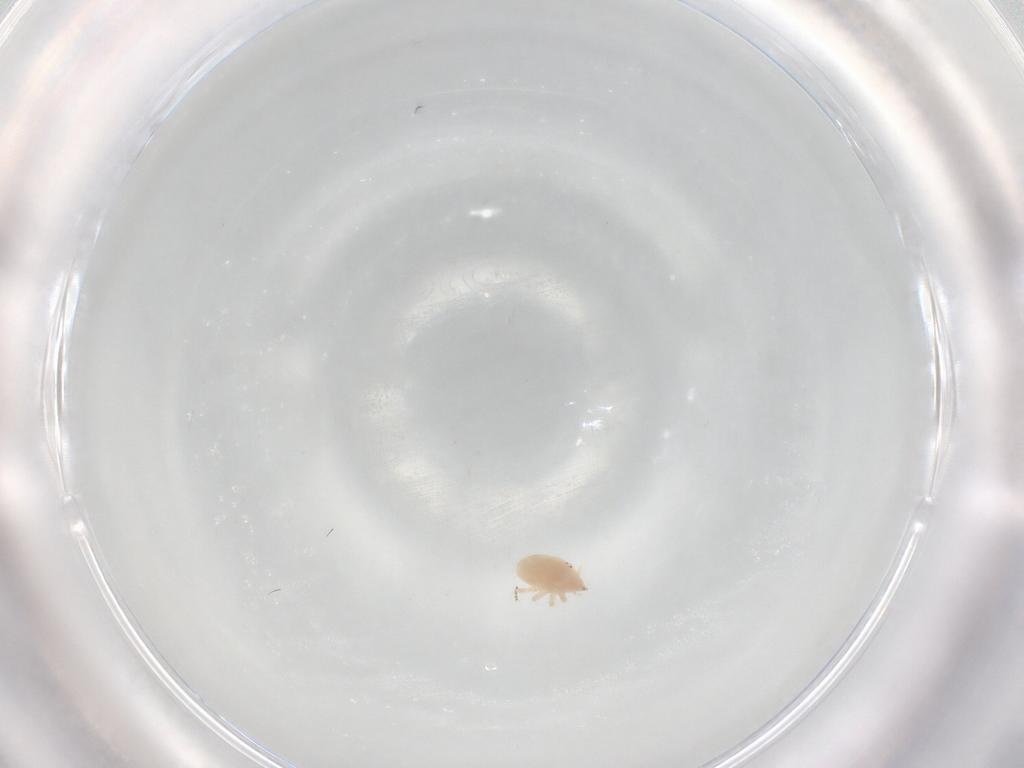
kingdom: Animalia
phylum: Arthropoda
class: Arachnida
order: Trombidiformes
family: Bdellidae
